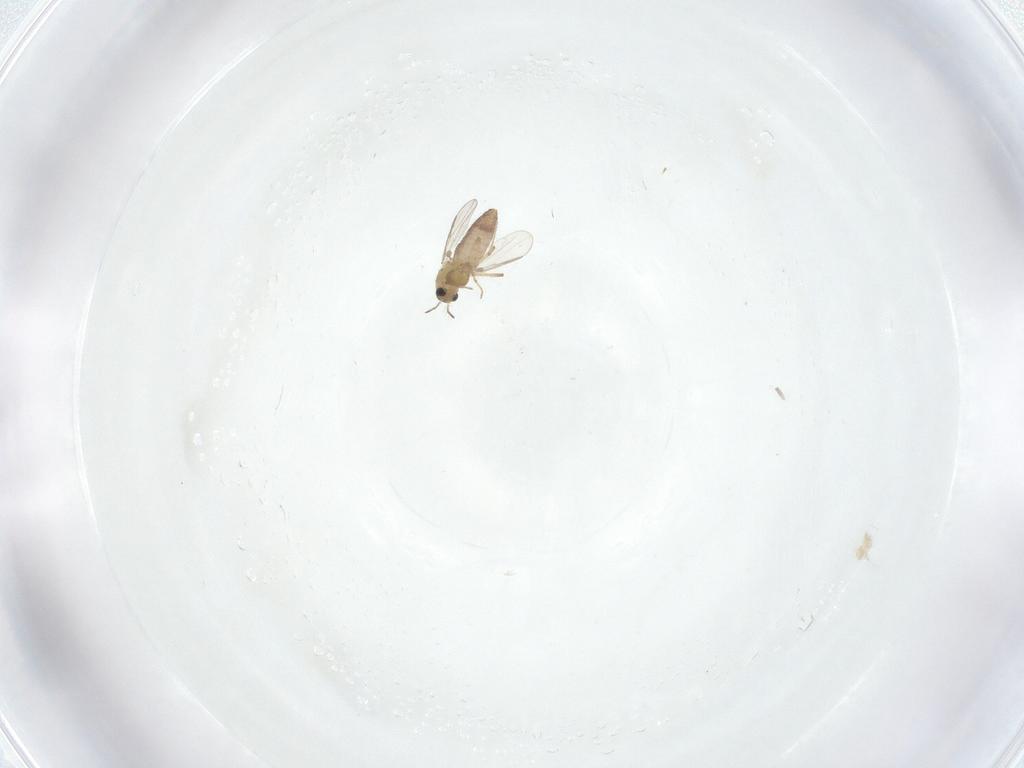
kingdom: Animalia
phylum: Arthropoda
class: Insecta
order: Diptera
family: Chironomidae
